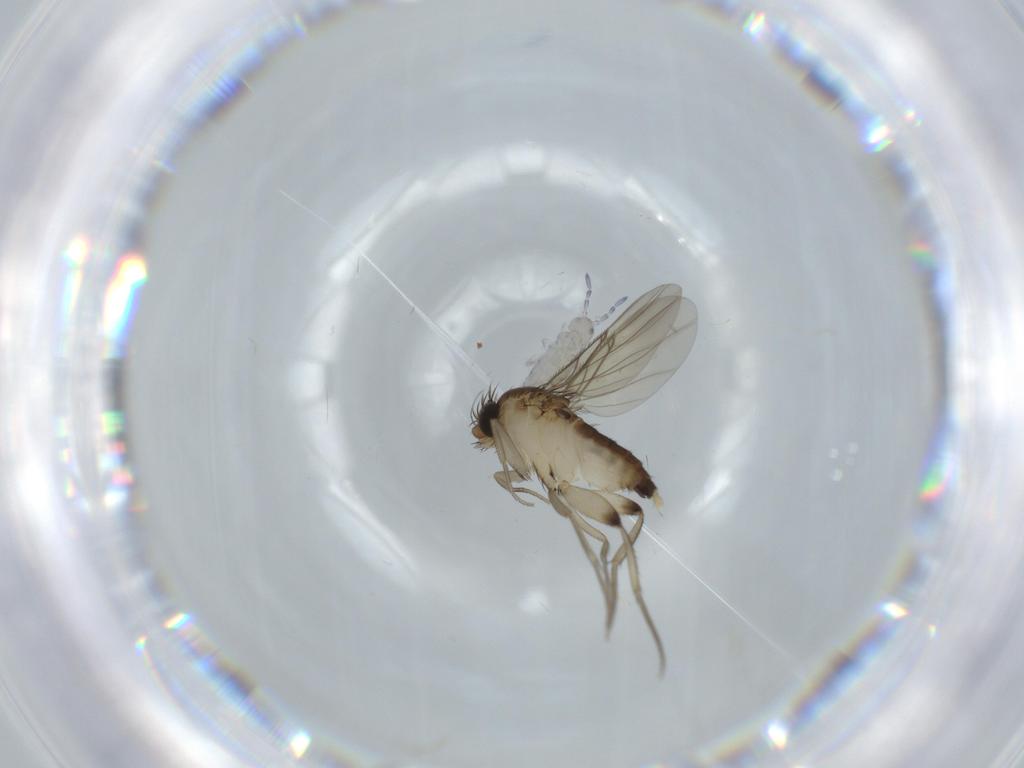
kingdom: Animalia
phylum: Arthropoda
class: Insecta
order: Diptera
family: Phoridae
